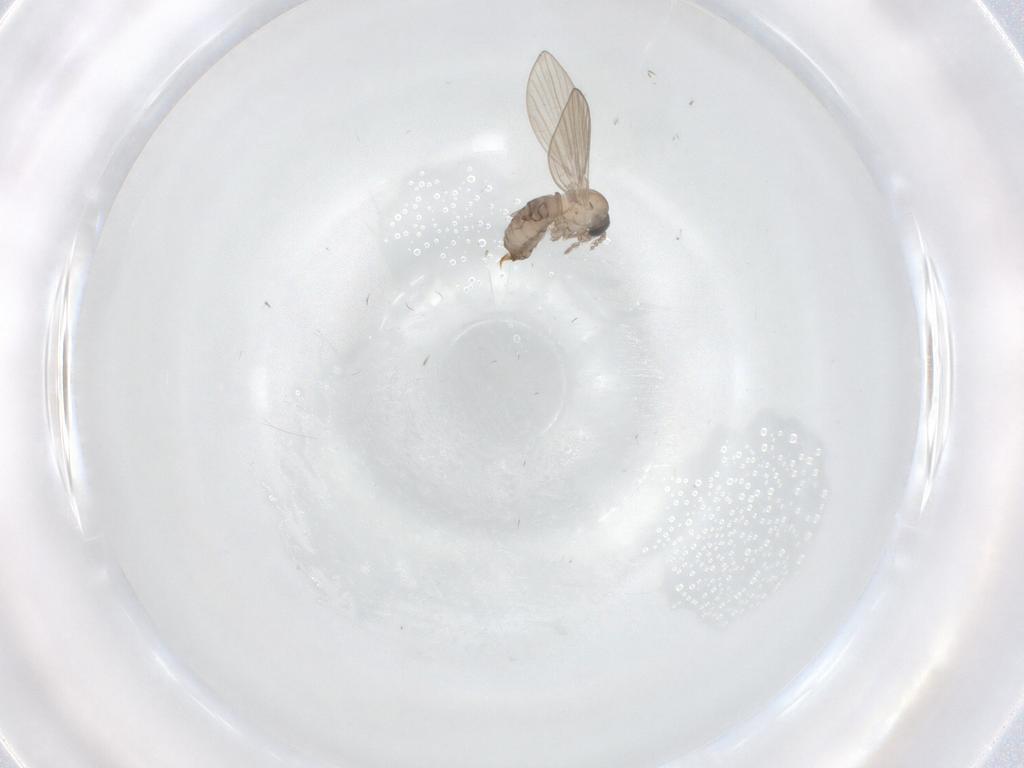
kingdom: Animalia
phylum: Arthropoda
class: Insecta
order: Diptera
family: Psychodidae
